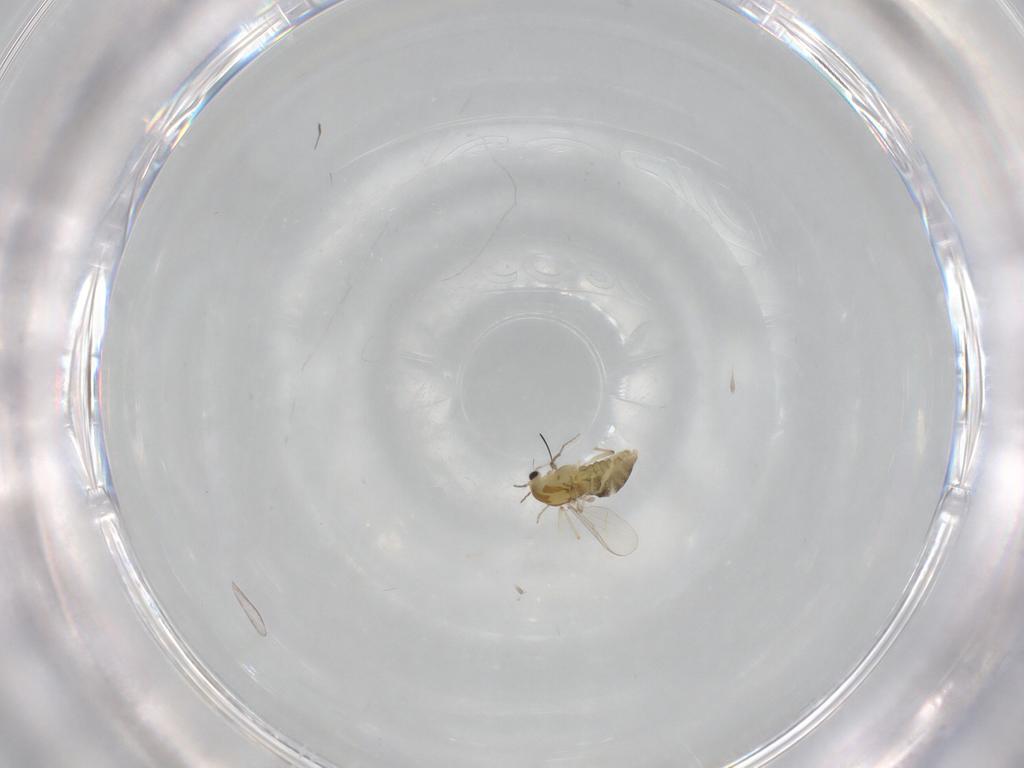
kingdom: Animalia
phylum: Arthropoda
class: Insecta
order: Diptera
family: Chironomidae
